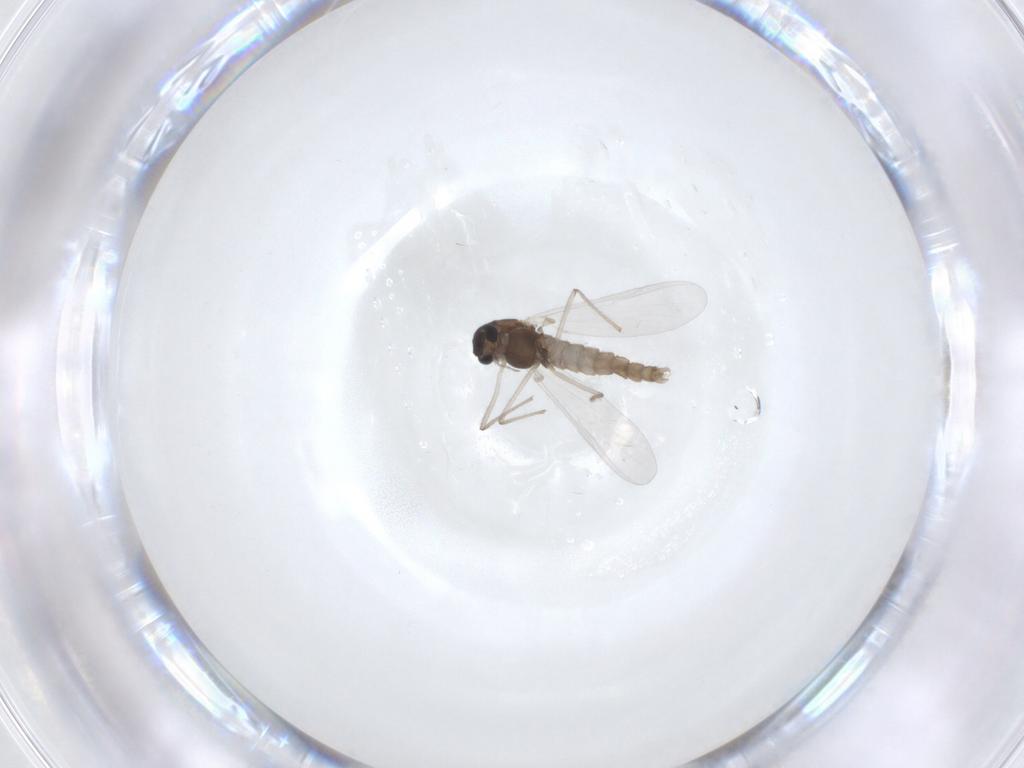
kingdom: Animalia
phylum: Arthropoda
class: Insecta
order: Diptera
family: Chironomidae
